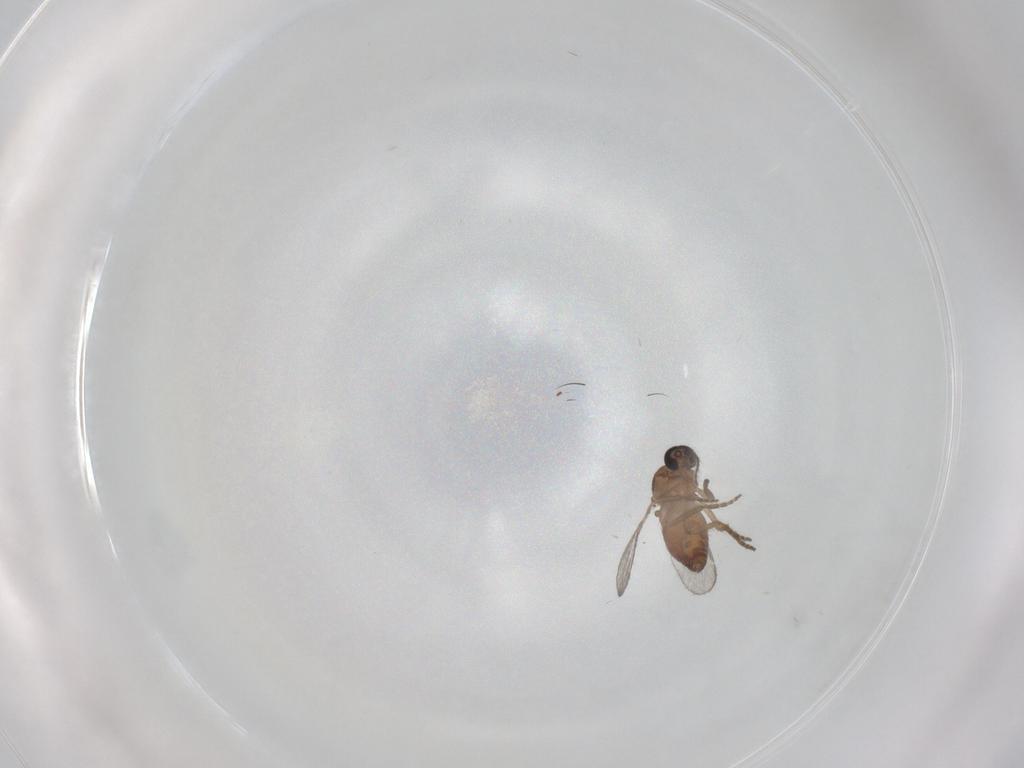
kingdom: Animalia
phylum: Arthropoda
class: Insecta
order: Diptera
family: Ceratopogonidae
